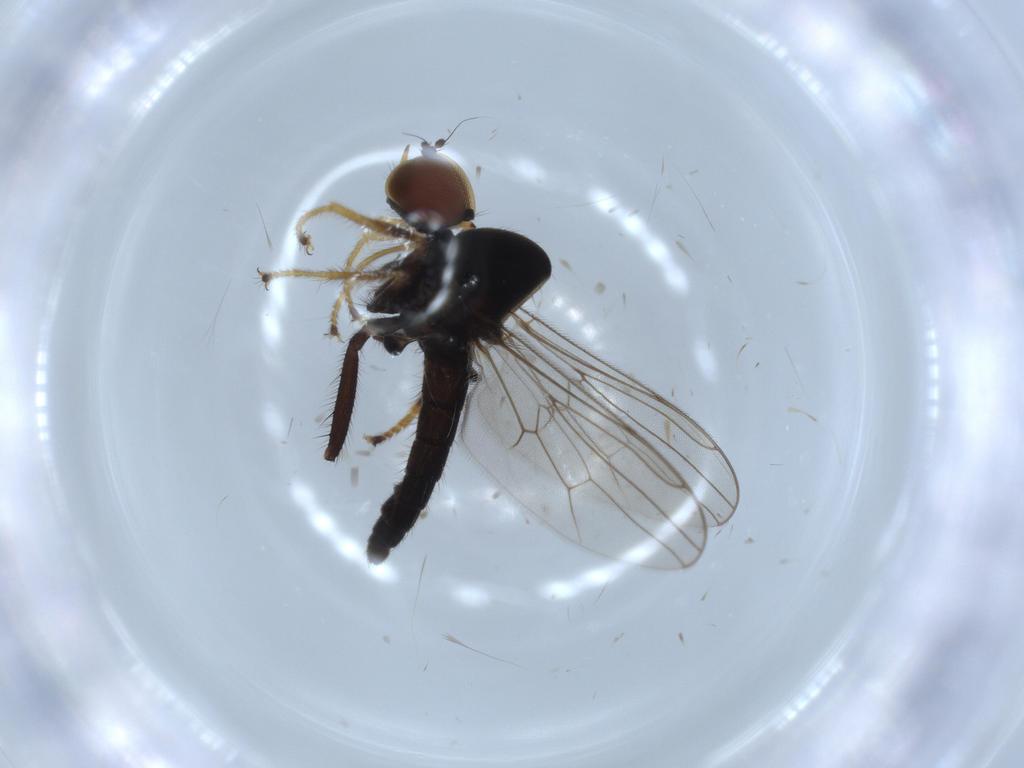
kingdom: Animalia
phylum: Arthropoda
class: Insecta
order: Diptera
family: Hybotidae
